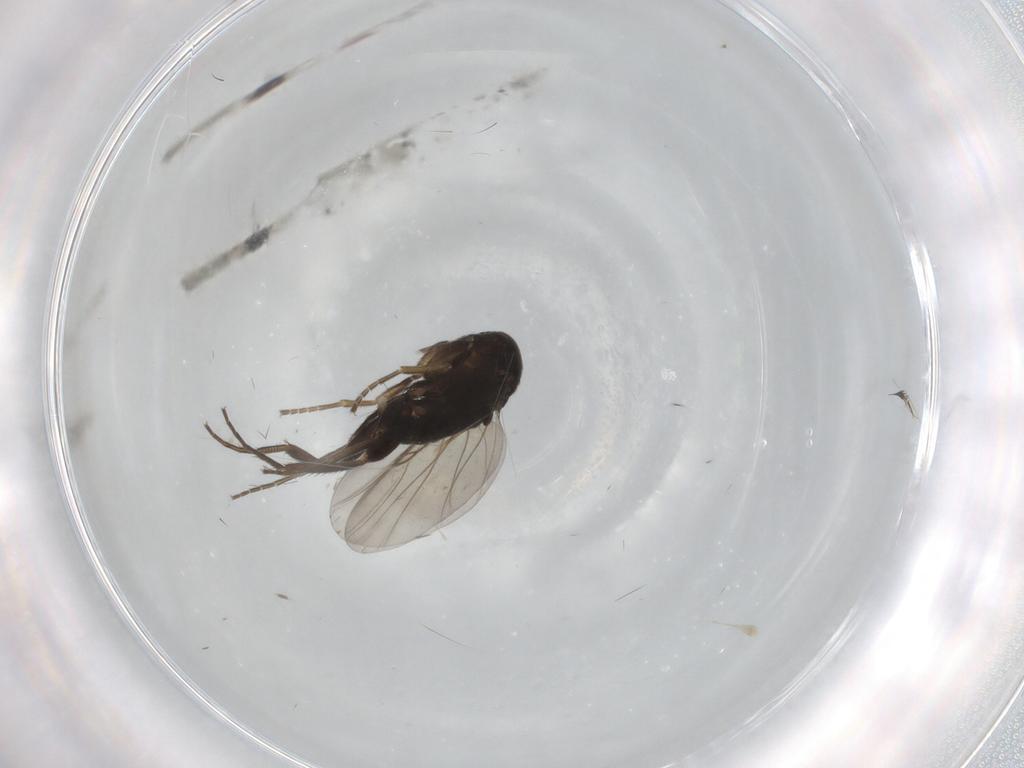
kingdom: Animalia
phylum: Arthropoda
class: Insecta
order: Diptera
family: Phoridae
